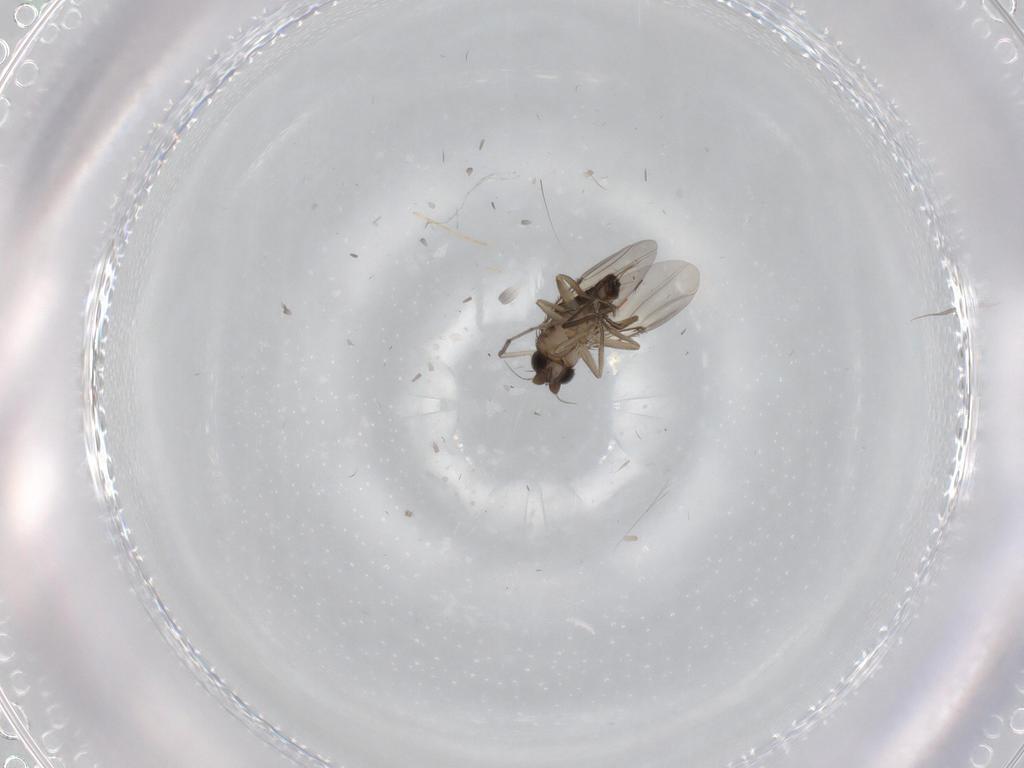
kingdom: Animalia
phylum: Arthropoda
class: Insecta
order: Diptera
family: Phoridae
